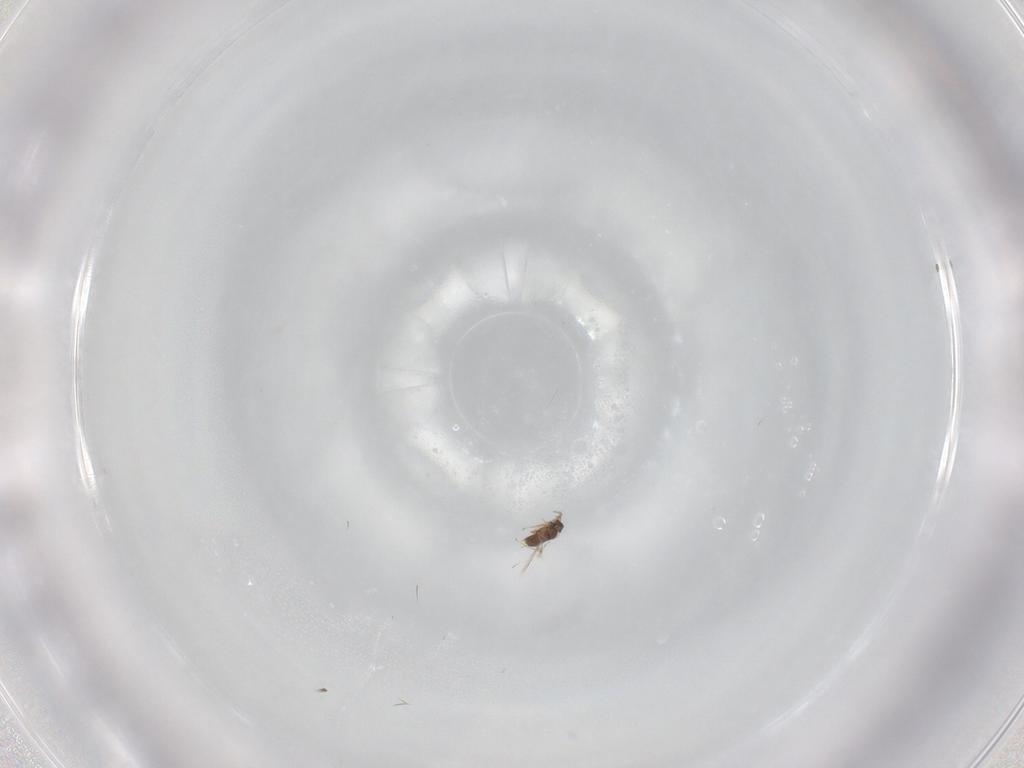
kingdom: Animalia
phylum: Arthropoda
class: Insecta
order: Hymenoptera
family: Mymaridae
